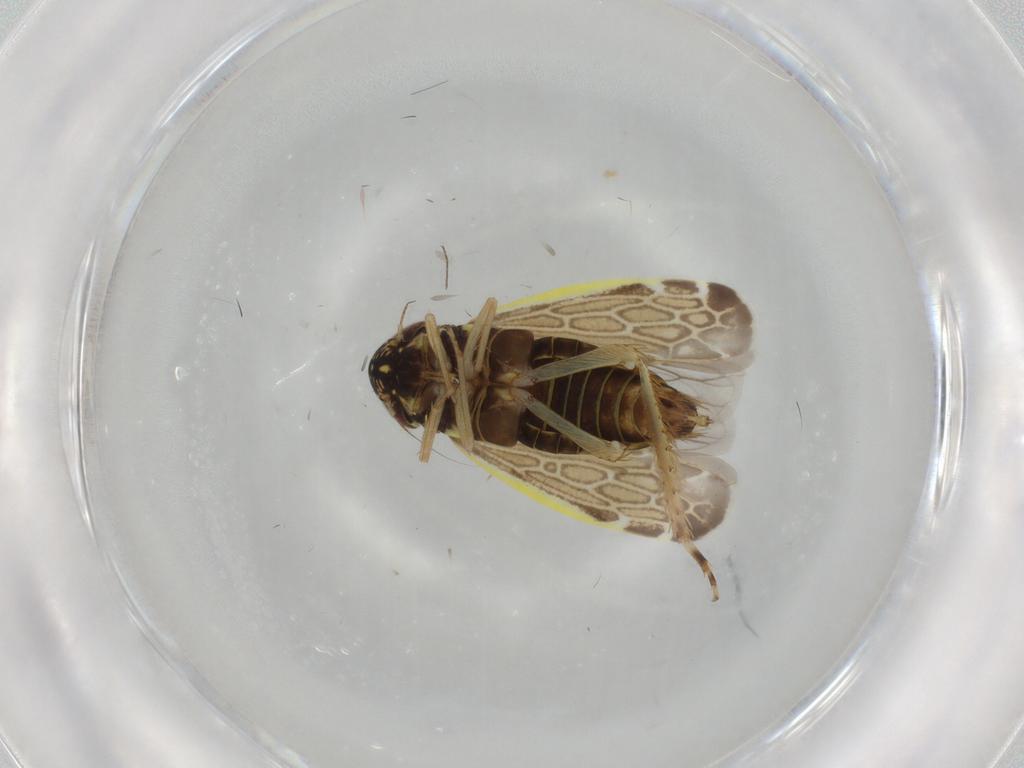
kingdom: Animalia
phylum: Arthropoda
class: Insecta
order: Hemiptera
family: Cicadellidae
